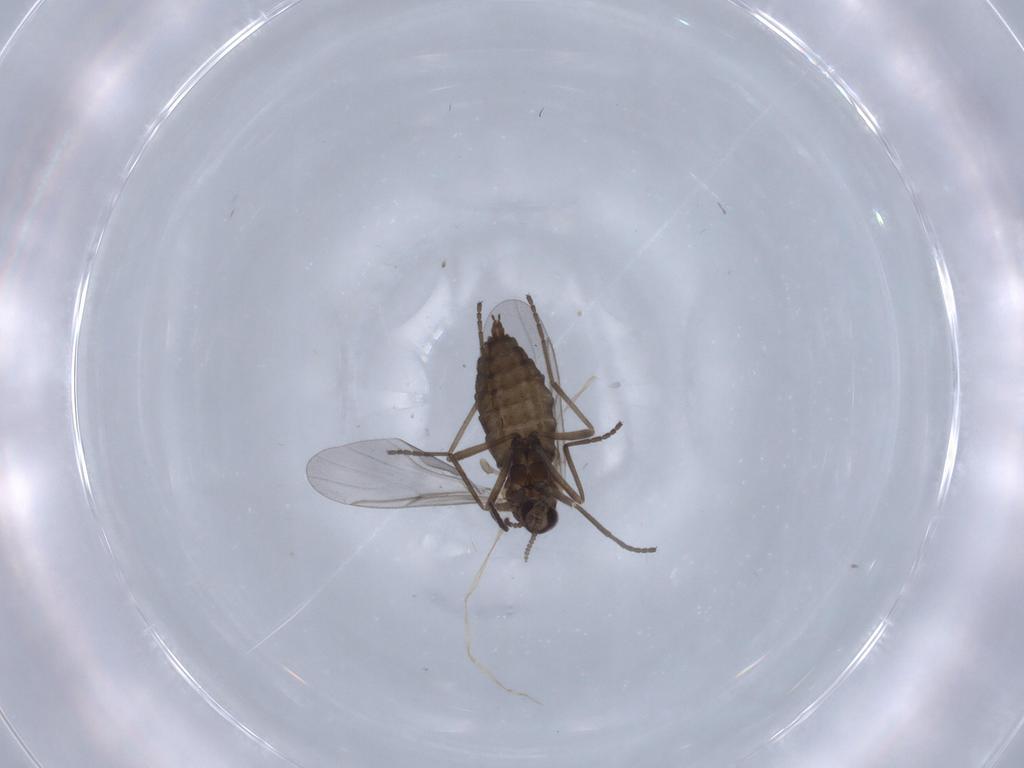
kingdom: Animalia
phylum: Arthropoda
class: Insecta
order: Diptera
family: Cecidomyiidae
